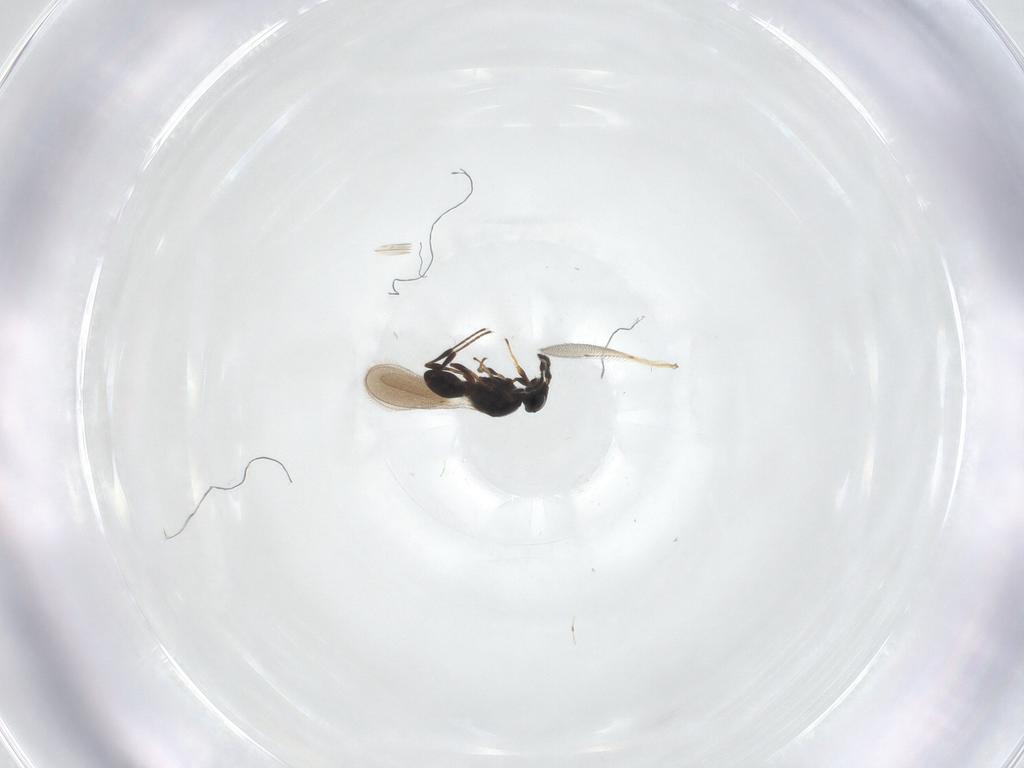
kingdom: Animalia
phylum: Arthropoda
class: Insecta
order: Hymenoptera
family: Platygastridae
